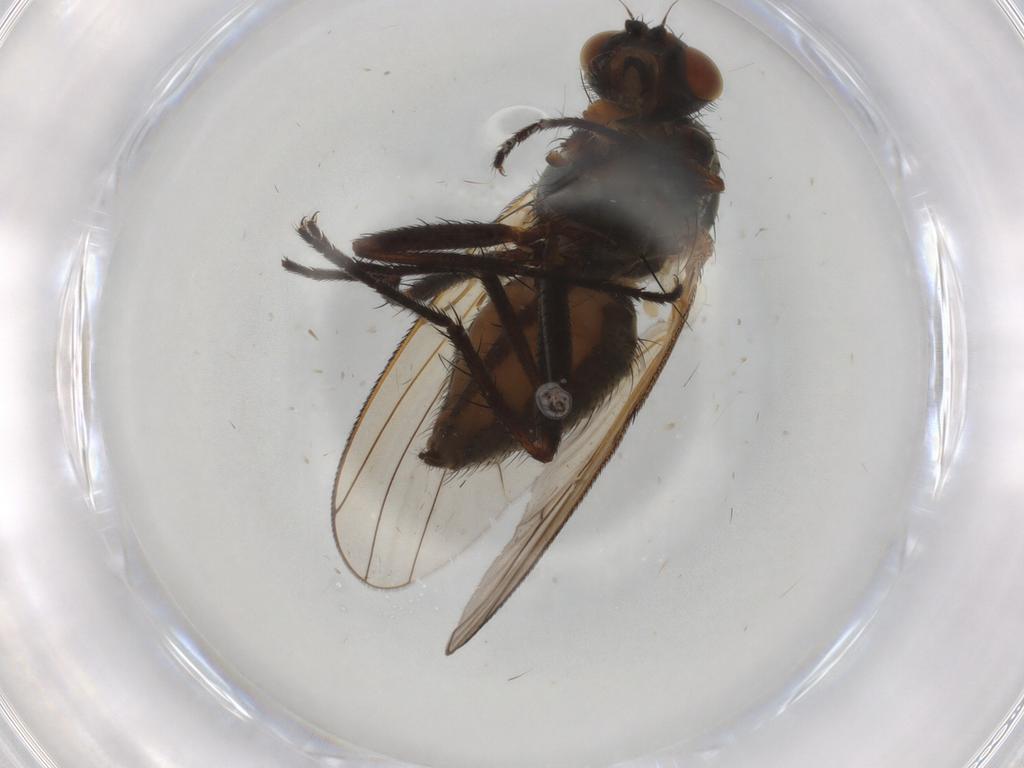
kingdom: Animalia
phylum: Arthropoda
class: Insecta
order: Diptera
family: Anthomyiidae
